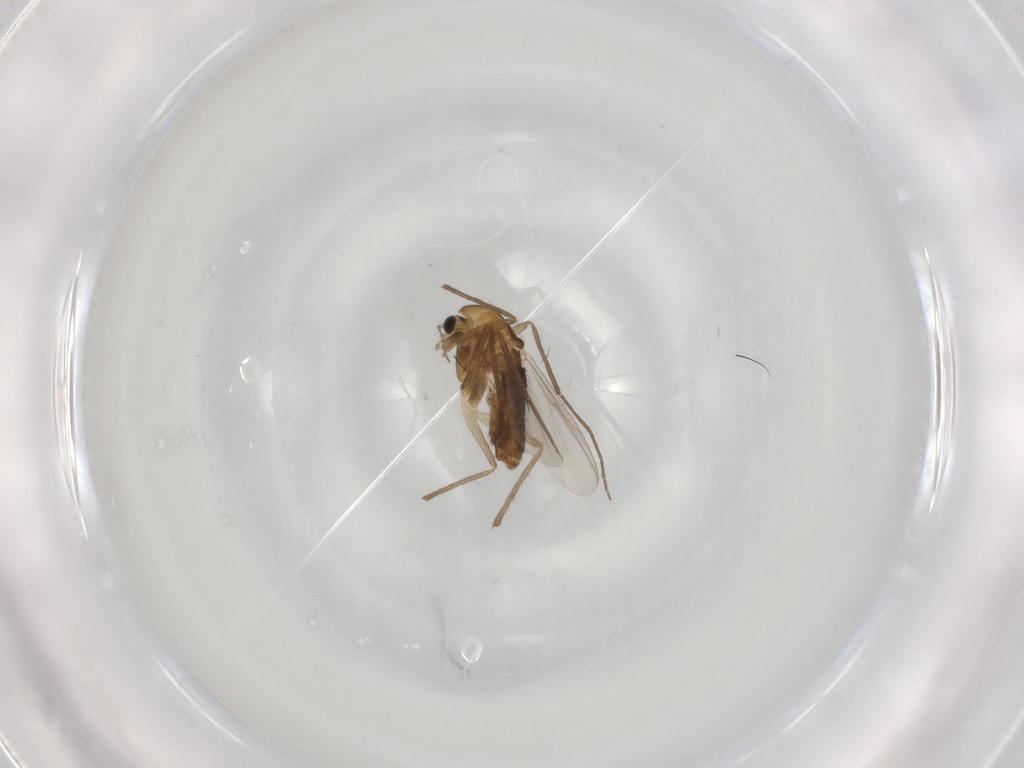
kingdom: Animalia
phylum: Arthropoda
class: Insecta
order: Diptera
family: Chironomidae
